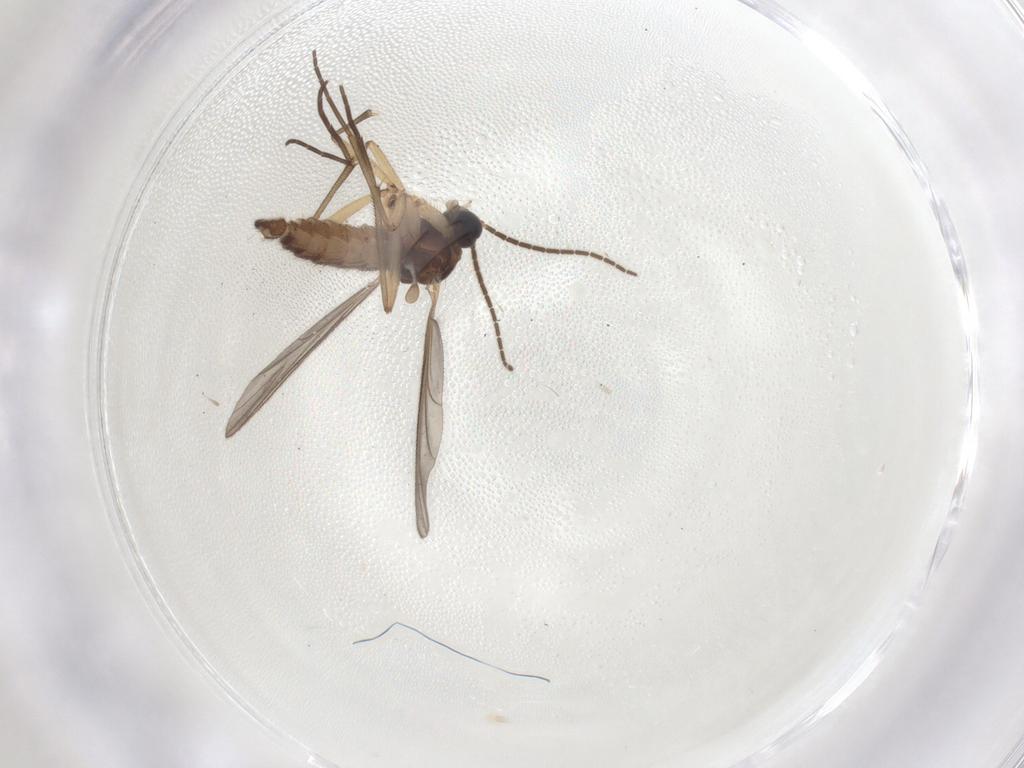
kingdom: Animalia
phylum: Arthropoda
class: Insecta
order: Diptera
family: Sciaridae
